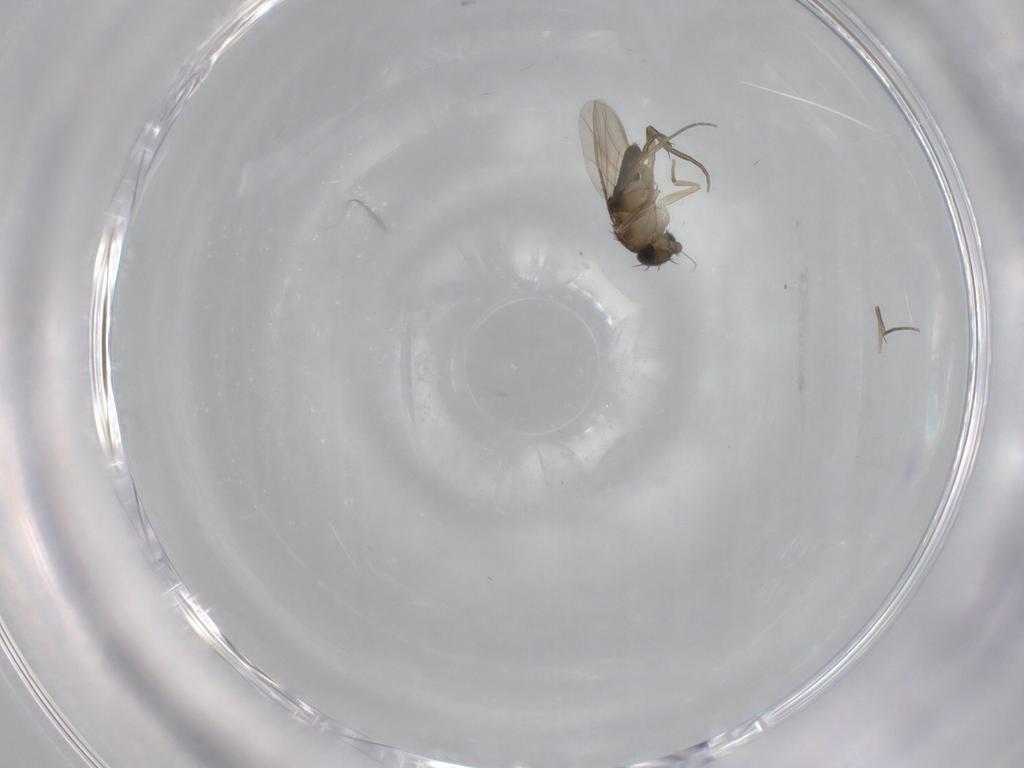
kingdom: Animalia
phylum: Arthropoda
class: Insecta
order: Diptera
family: Phoridae
